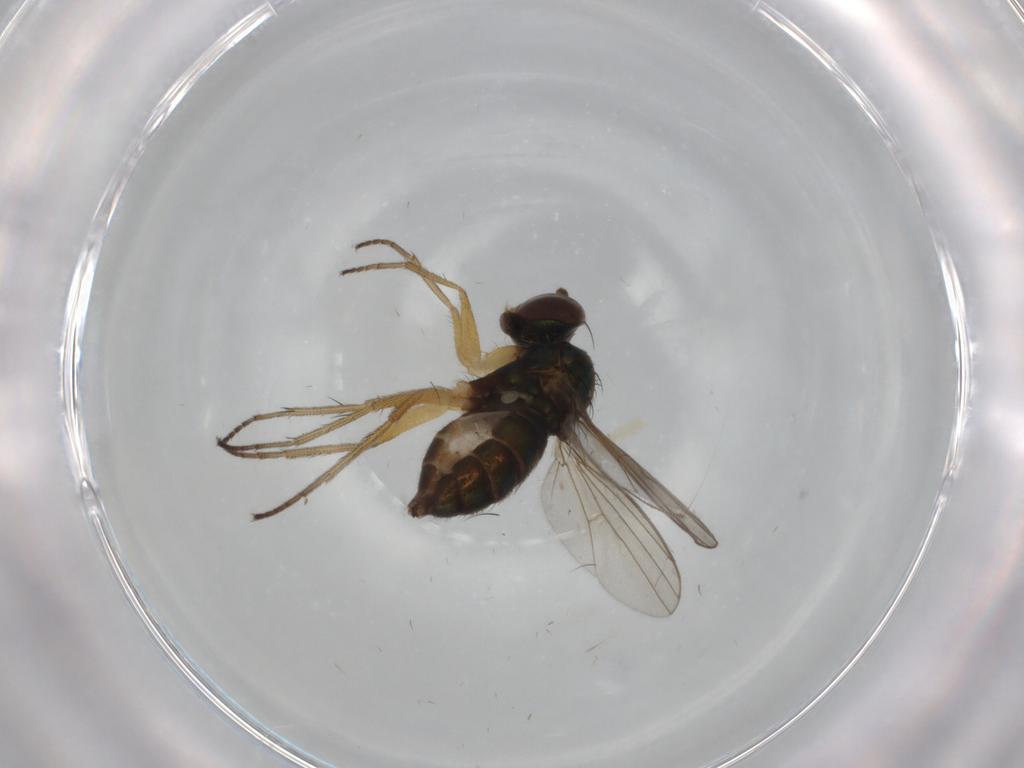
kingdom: Animalia
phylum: Arthropoda
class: Insecta
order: Diptera
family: Dolichopodidae
